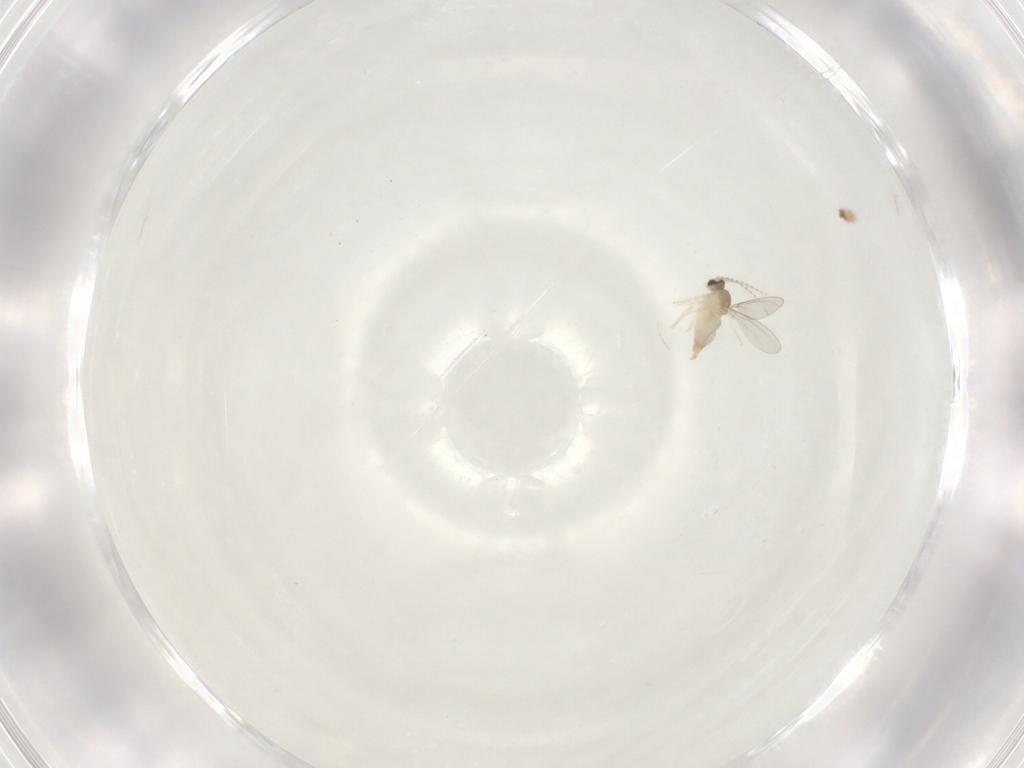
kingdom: Animalia
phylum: Arthropoda
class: Insecta
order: Diptera
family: Cecidomyiidae
